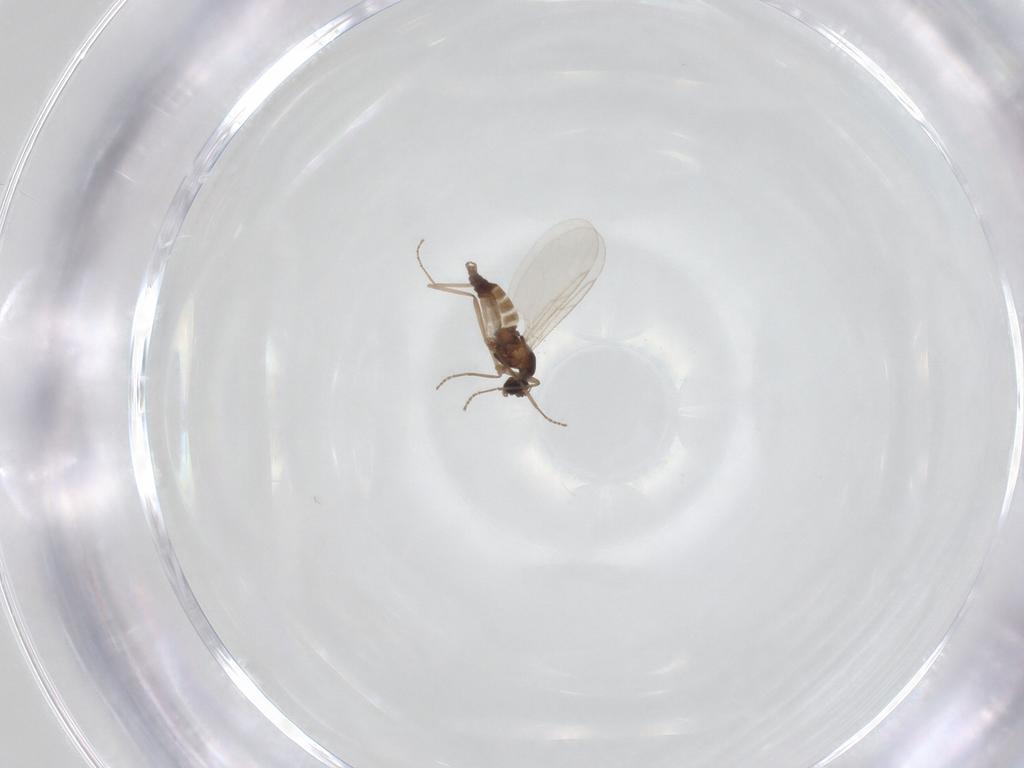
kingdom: Animalia
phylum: Arthropoda
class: Insecta
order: Diptera
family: Cecidomyiidae
